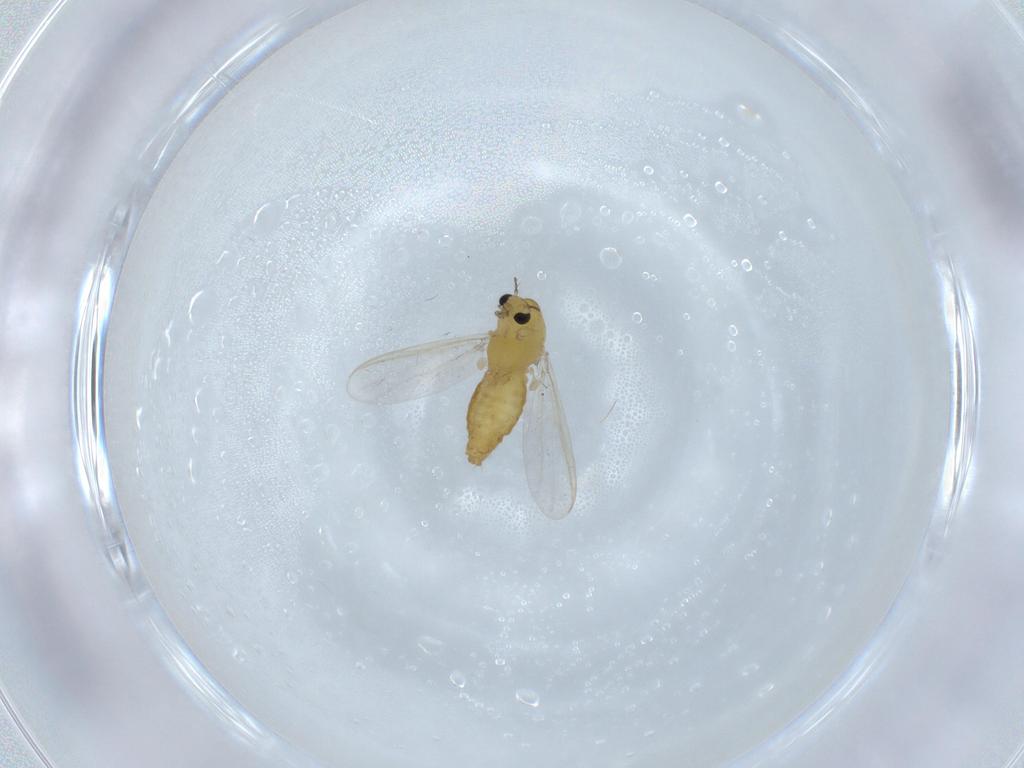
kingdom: Animalia
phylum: Arthropoda
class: Insecta
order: Diptera
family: Chironomidae
